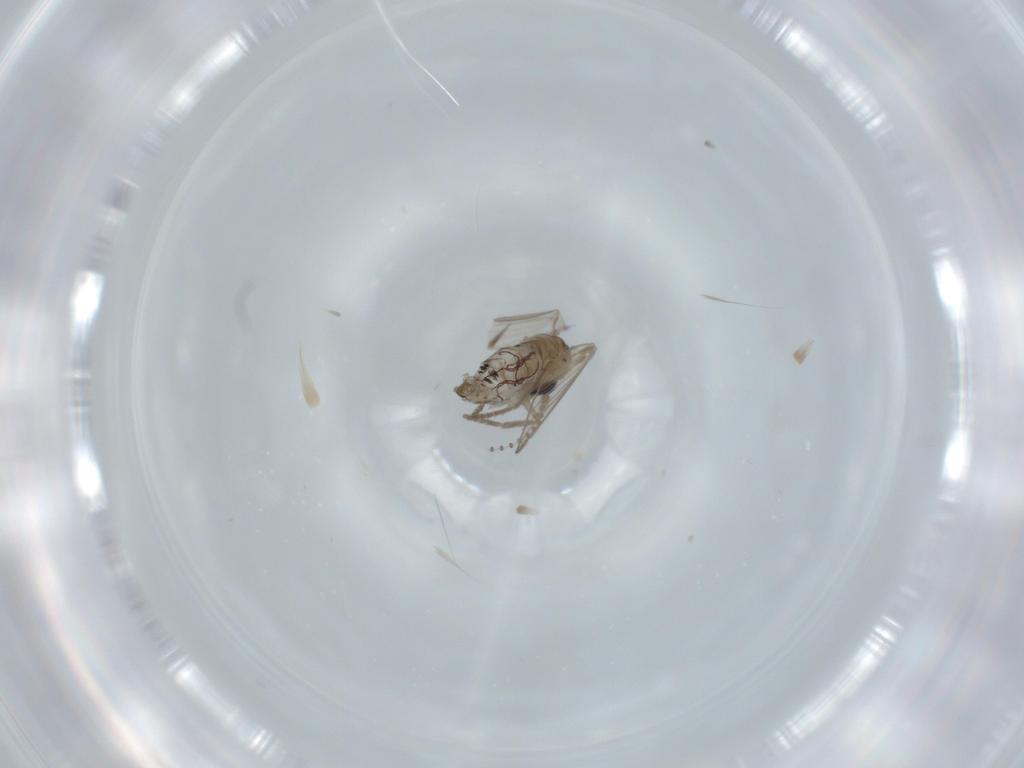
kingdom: Animalia
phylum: Arthropoda
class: Insecta
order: Diptera
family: Psychodidae
